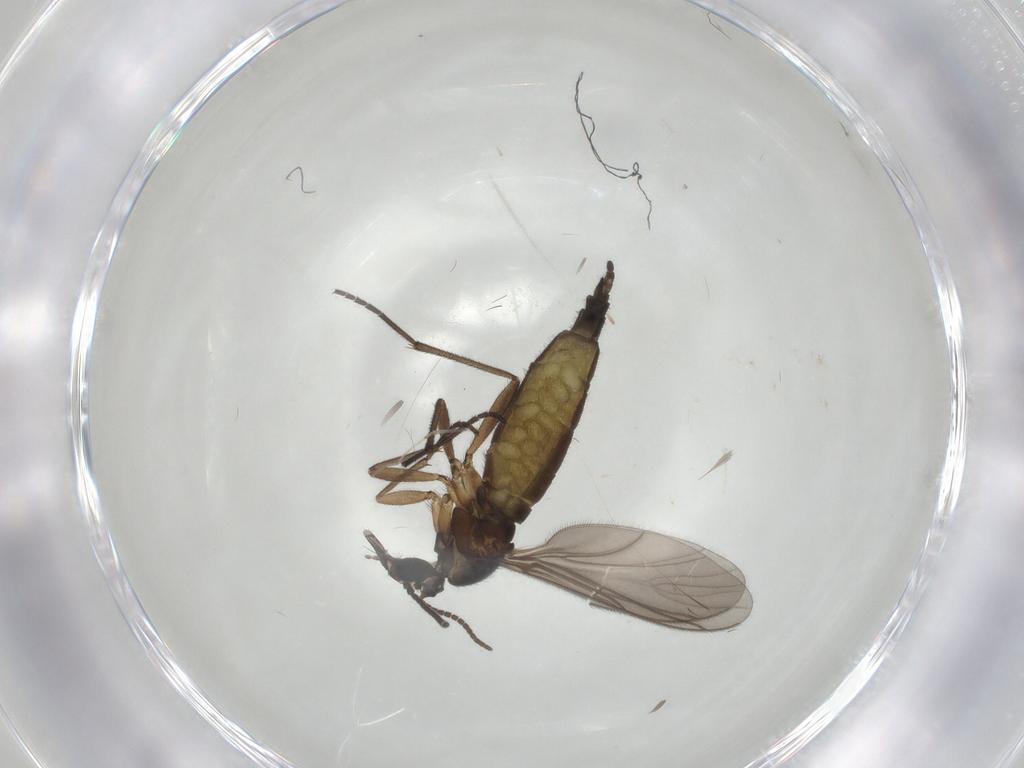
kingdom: Animalia
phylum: Arthropoda
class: Insecta
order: Diptera
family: Sciaridae
